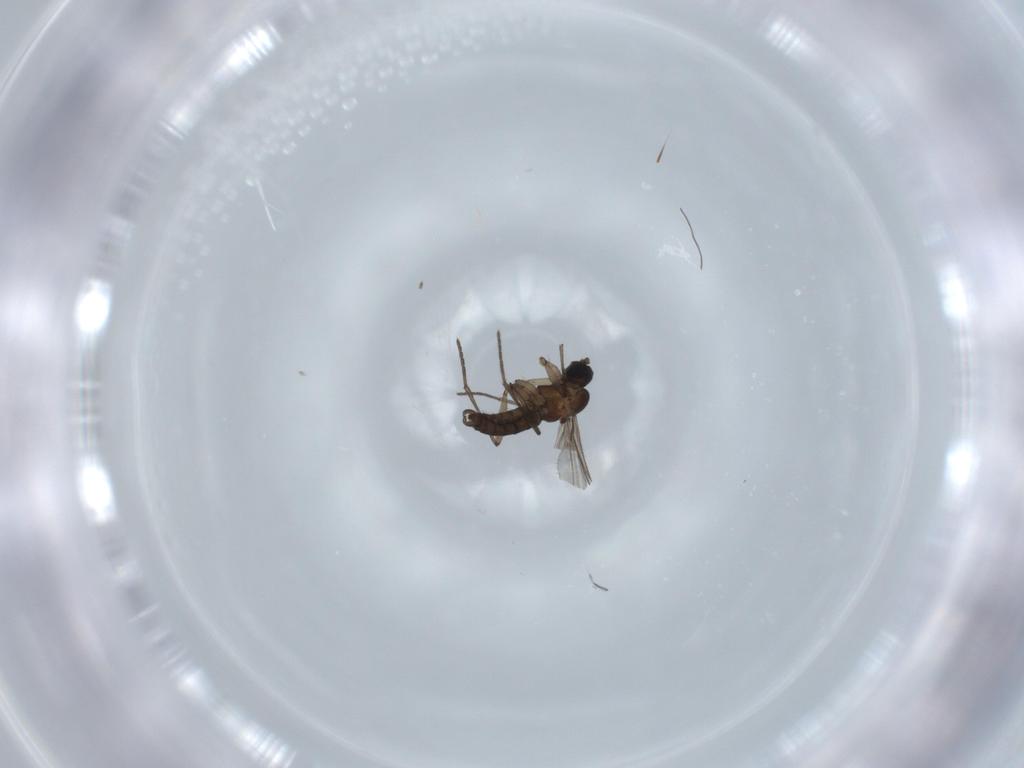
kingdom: Animalia
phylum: Arthropoda
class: Insecta
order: Diptera
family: Sciaridae
